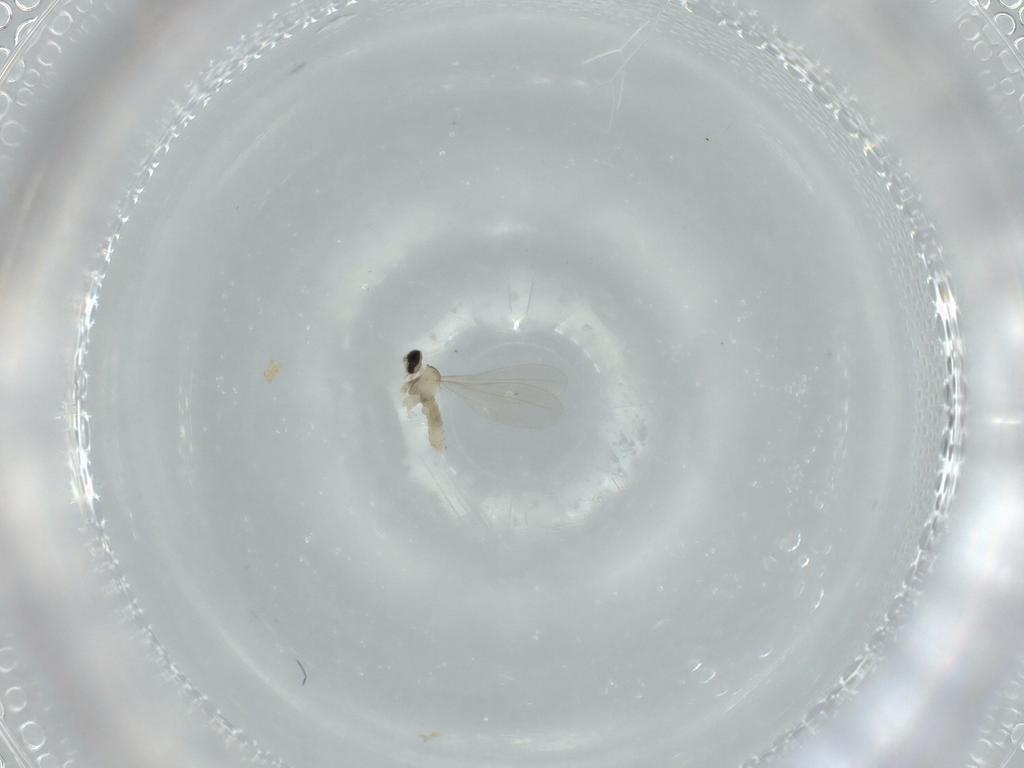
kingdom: Animalia
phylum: Arthropoda
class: Insecta
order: Diptera
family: Cecidomyiidae
